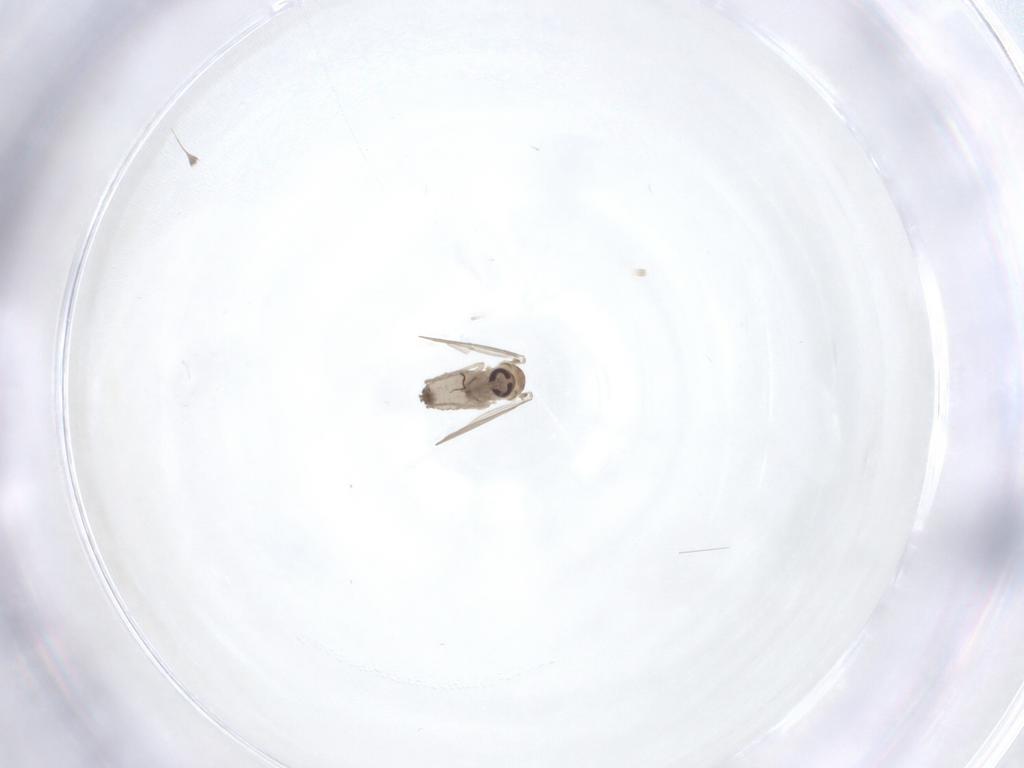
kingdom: Animalia
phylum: Arthropoda
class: Insecta
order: Diptera
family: Psychodidae
